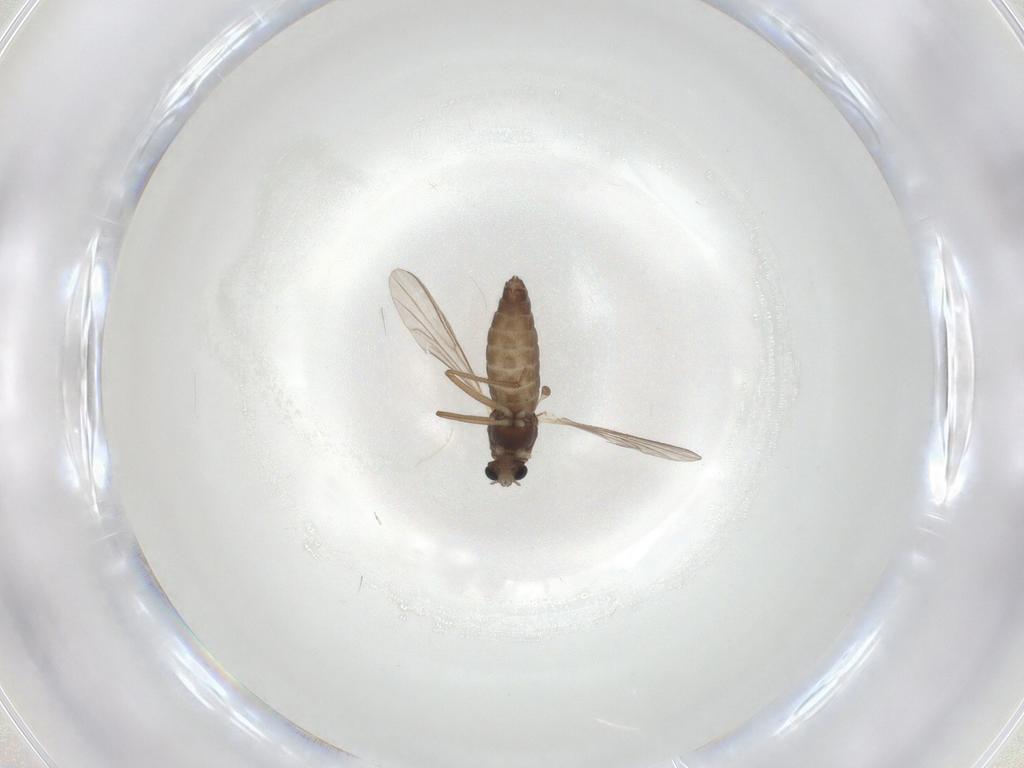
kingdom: Animalia
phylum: Arthropoda
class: Insecta
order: Diptera
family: Chironomidae
